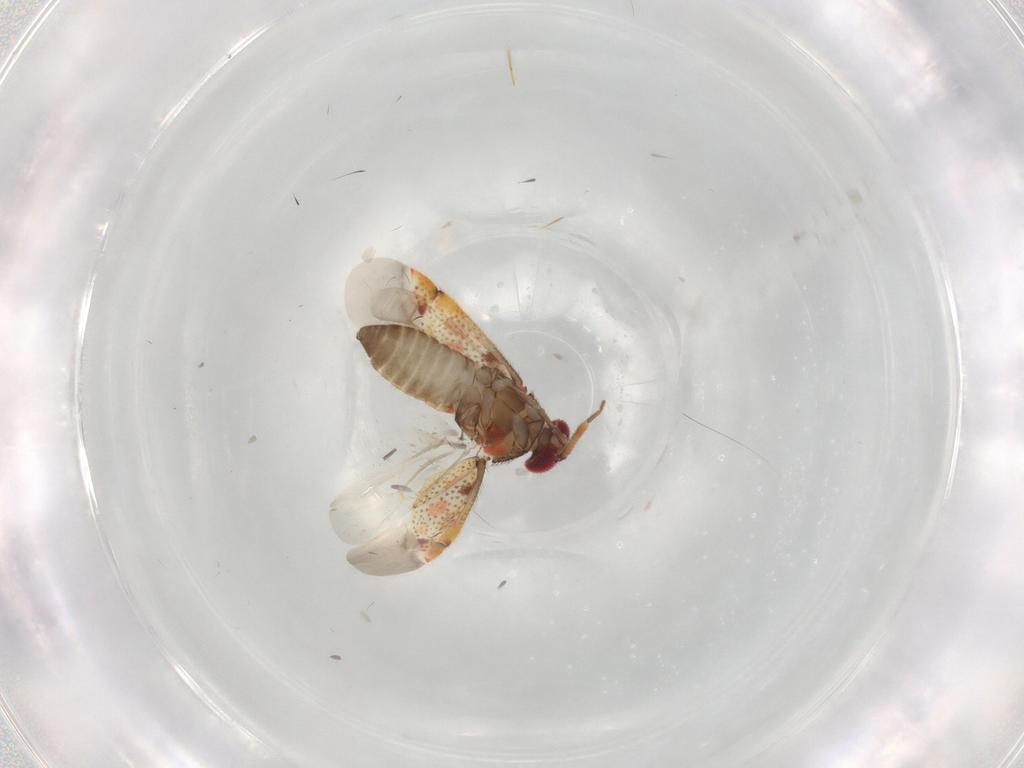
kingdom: Animalia
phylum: Arthropoda
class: Insecta
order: Hemiptera
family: Miridae
